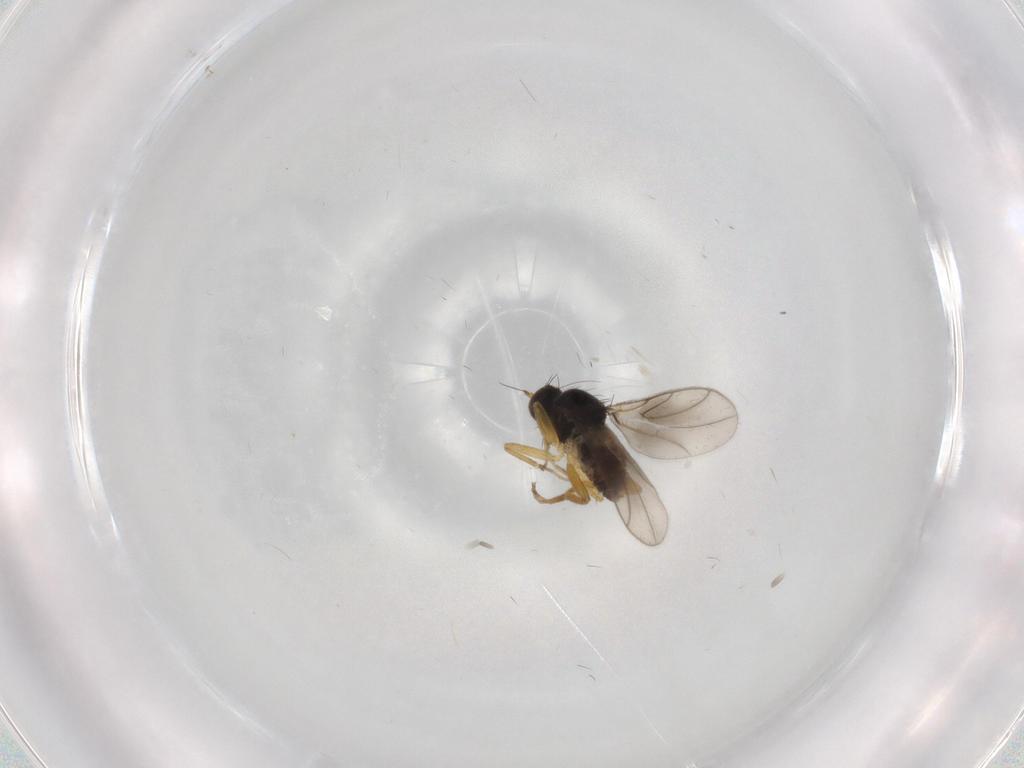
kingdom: Animalia
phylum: Arthropoda
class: Insecta
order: Diptera
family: Hybotidae
